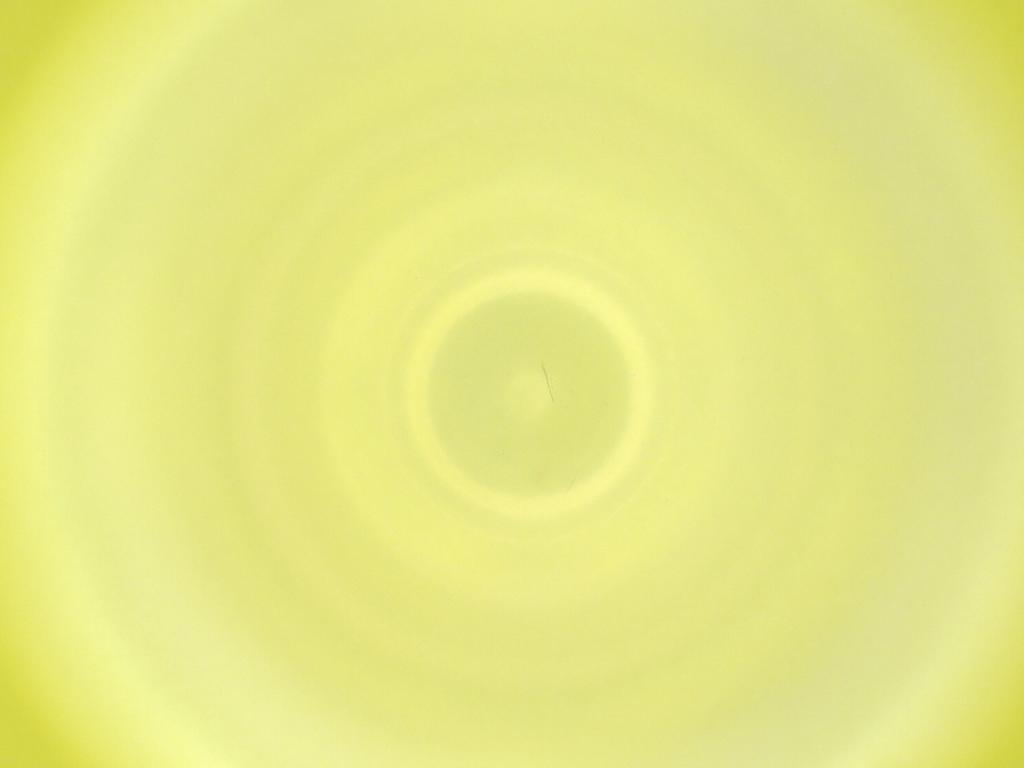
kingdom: Animalia
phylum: Arthropoda
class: Insecta
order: Diptera
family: Cecidomyiidae
